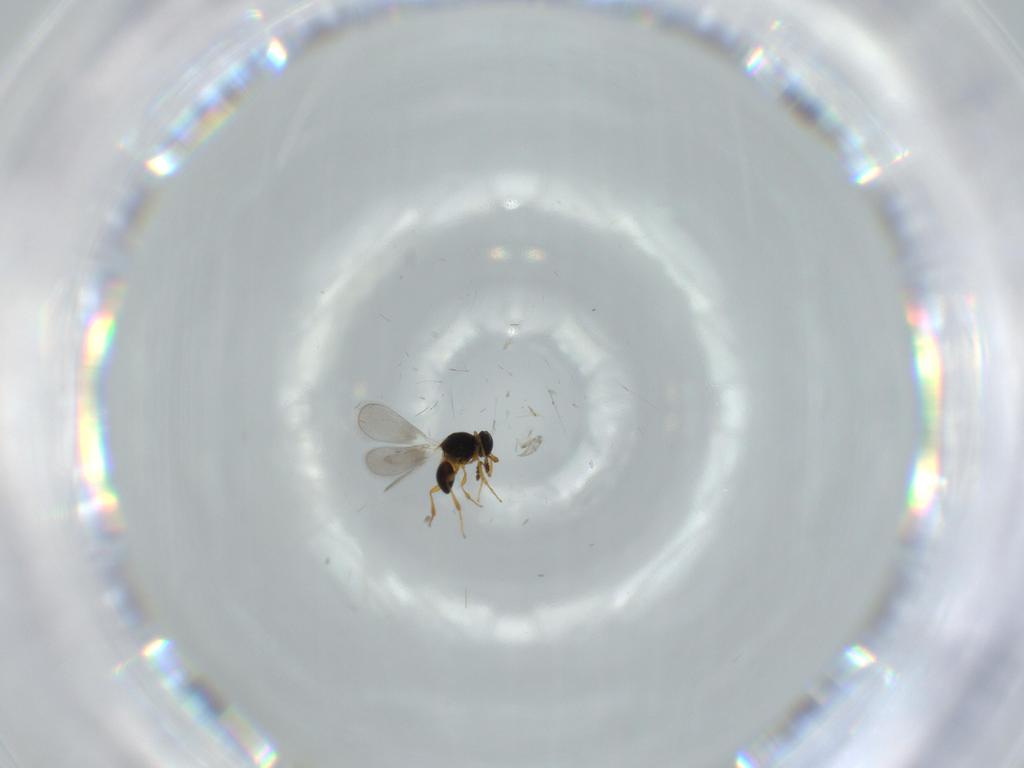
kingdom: Animalia
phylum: Arthropoda
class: Insecta
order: Hymenoptera
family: Platygastridae
